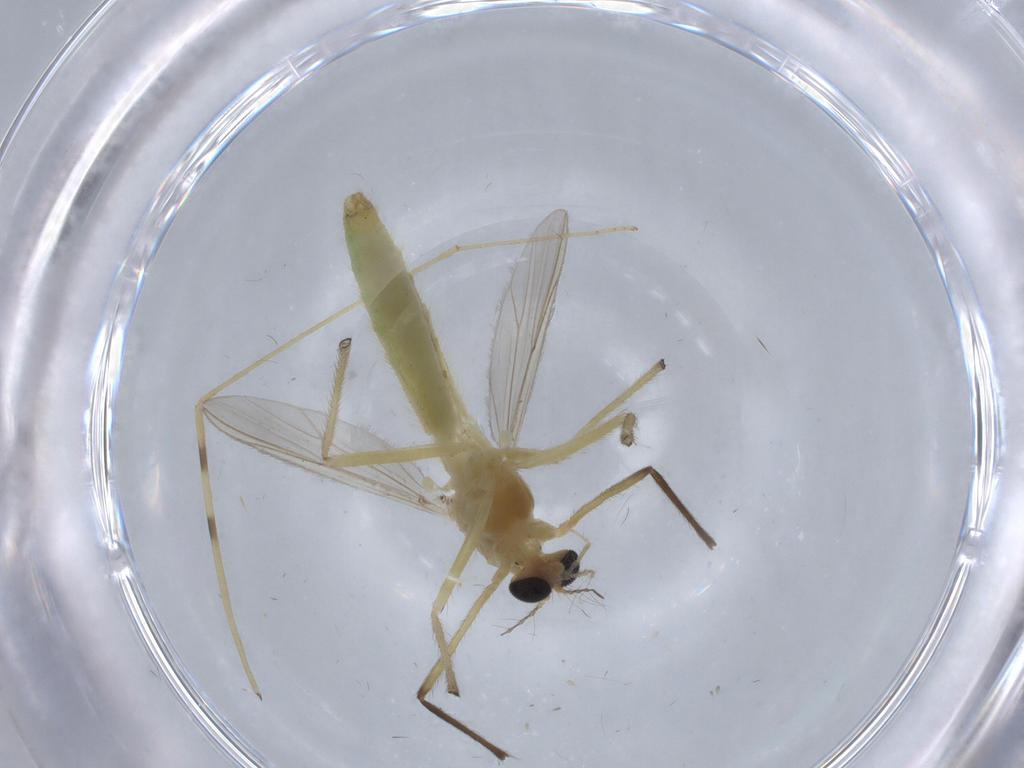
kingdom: Animalia
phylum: Arthropoda
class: Insecta
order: Diptera
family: Chironomidae
